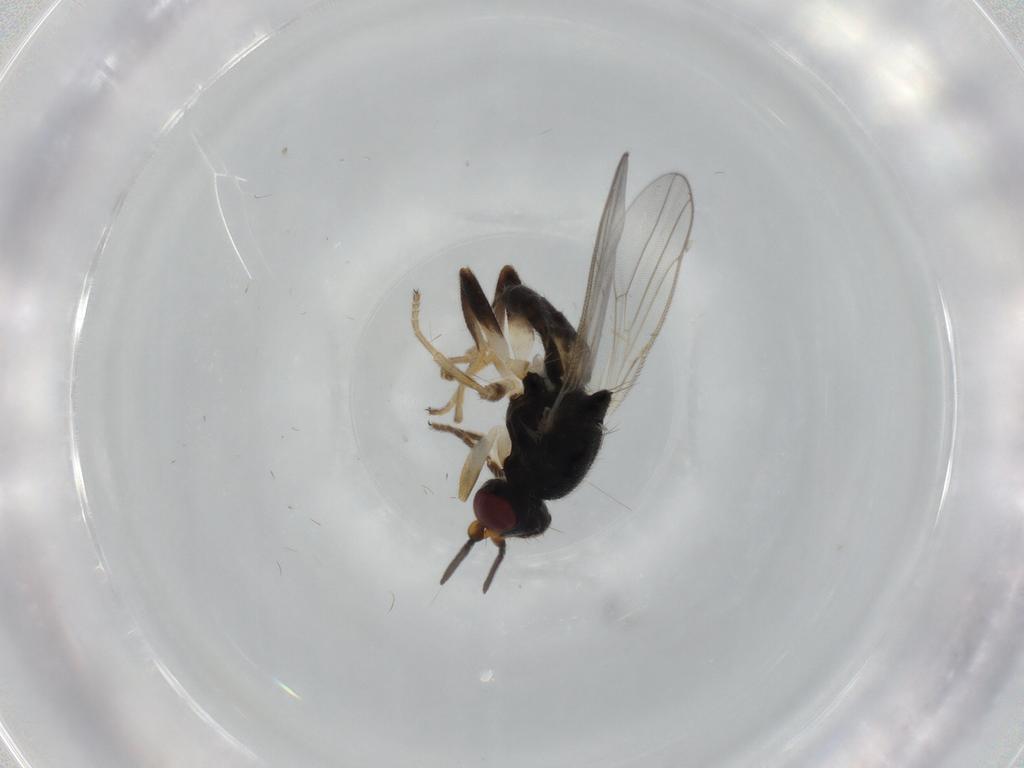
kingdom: Animalia
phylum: Arthropoda
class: Insecta
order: Diptera
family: Chloropidae
